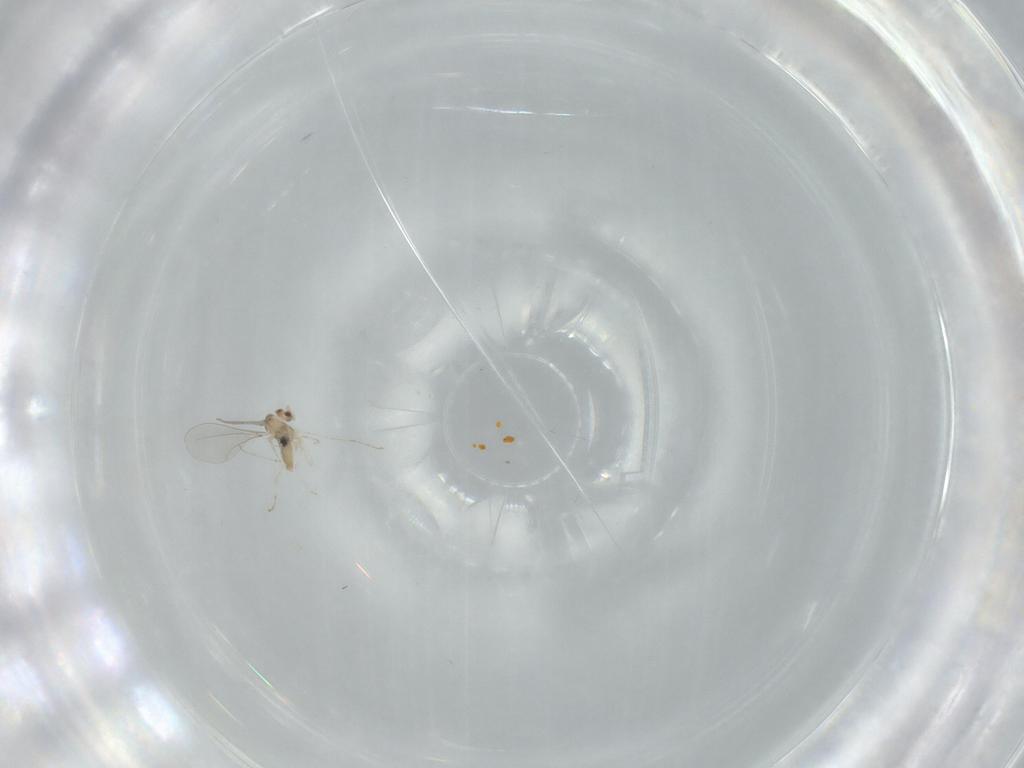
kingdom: Animalia
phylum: Arthropoda
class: Insecta
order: Diptera
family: Cecidomyiidae
